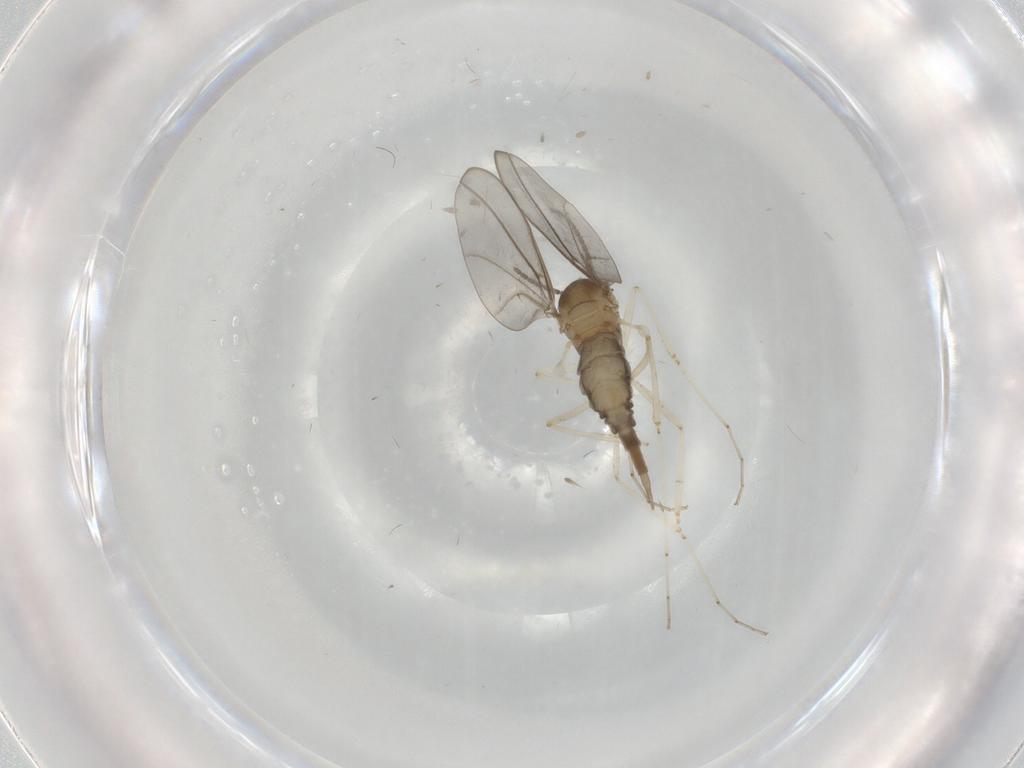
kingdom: Animalia
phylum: Arthropoda
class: Insecta
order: Diptera
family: Cecidomyiidae
